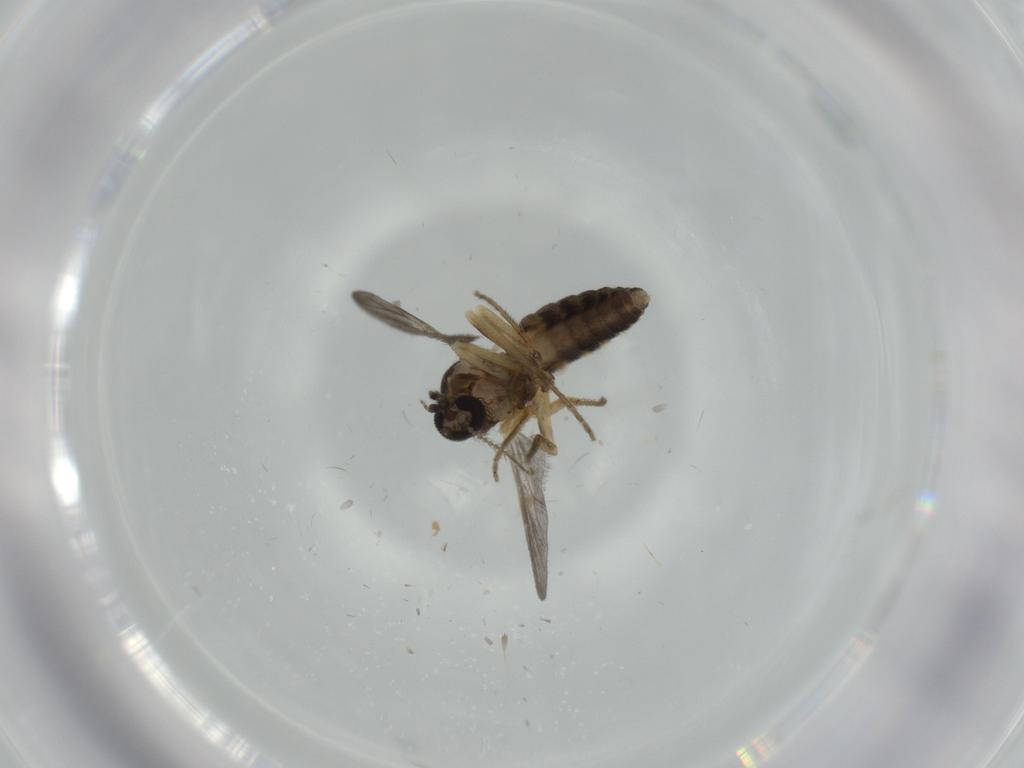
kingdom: Animalia
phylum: Arthropoda
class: Insecta
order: Diptera
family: Ceratopogonidae
